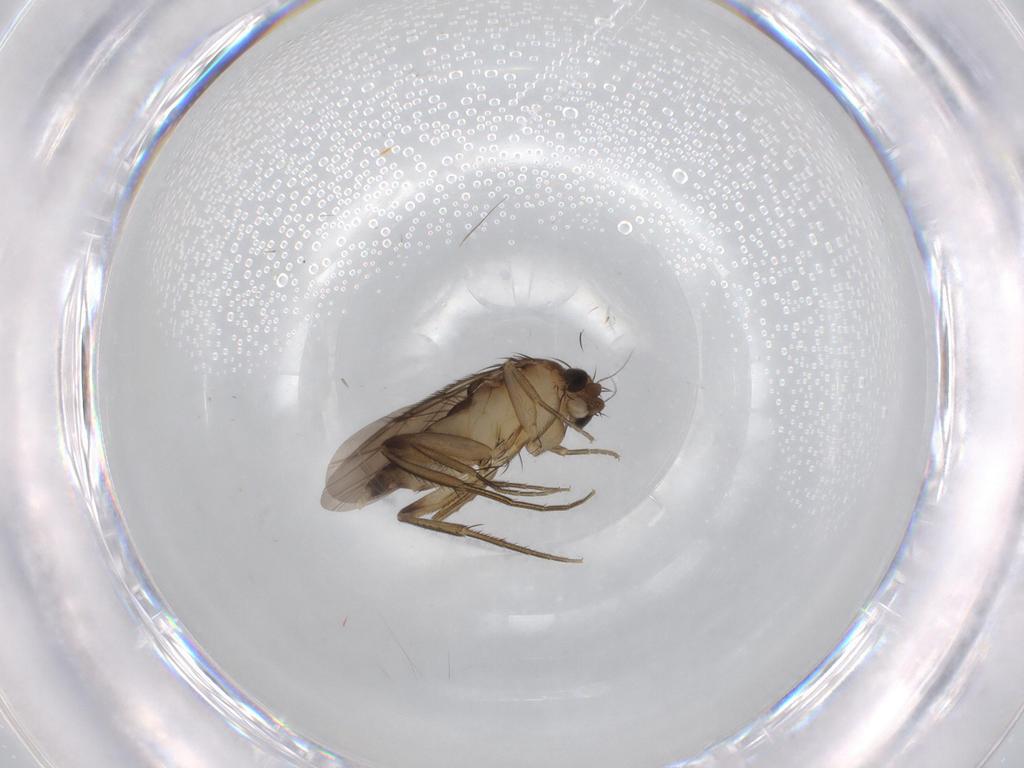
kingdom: Animalia
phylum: Arthropoda
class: Insecta
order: Diptera
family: Phoridae
